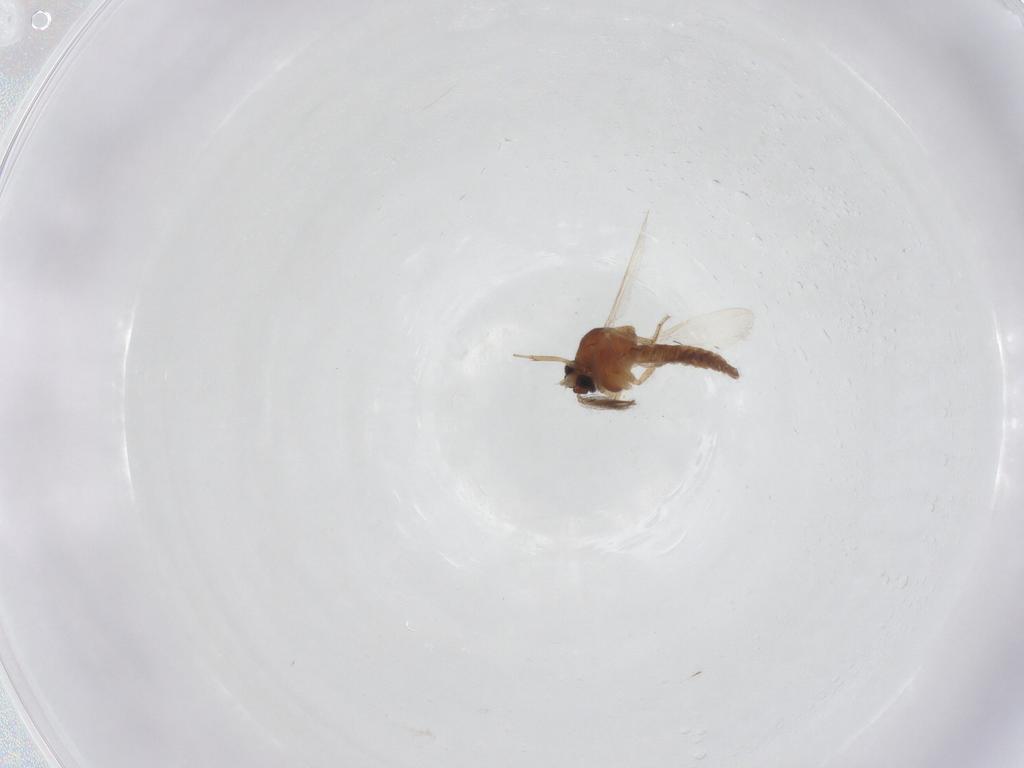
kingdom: Animalia
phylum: Arthropoda
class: Insecta
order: Diptera
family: Ceratopogonidae
